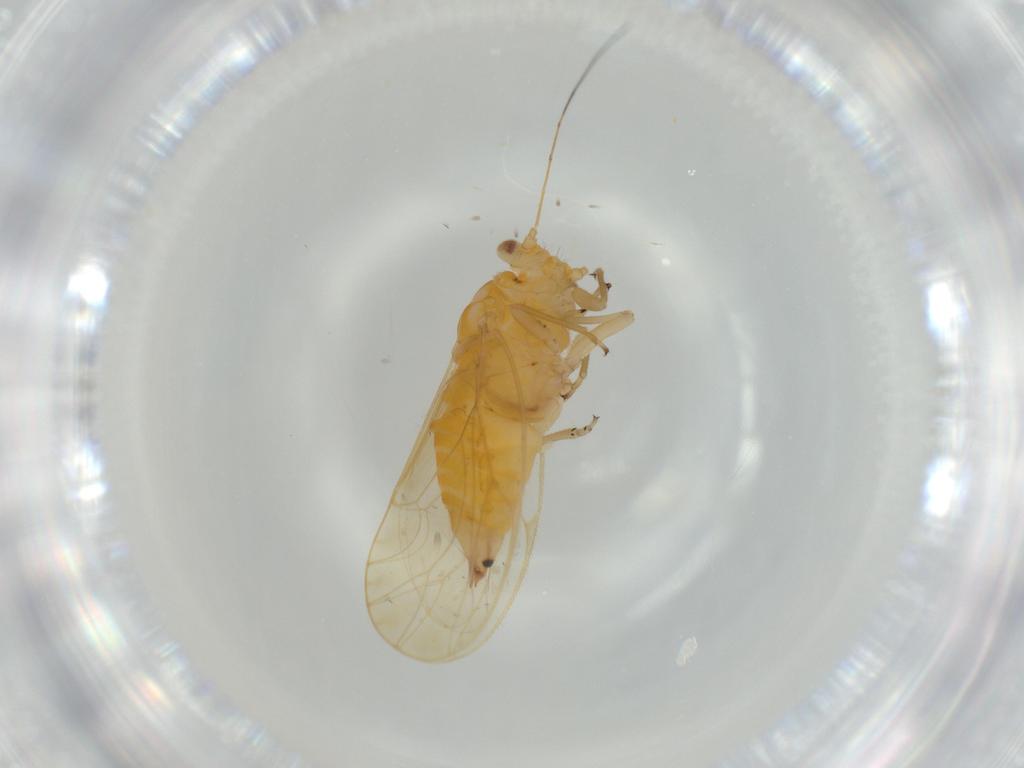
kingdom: Animalia
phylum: Arthropoda
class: Insecta
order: Hemiptera
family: Psyllidae
